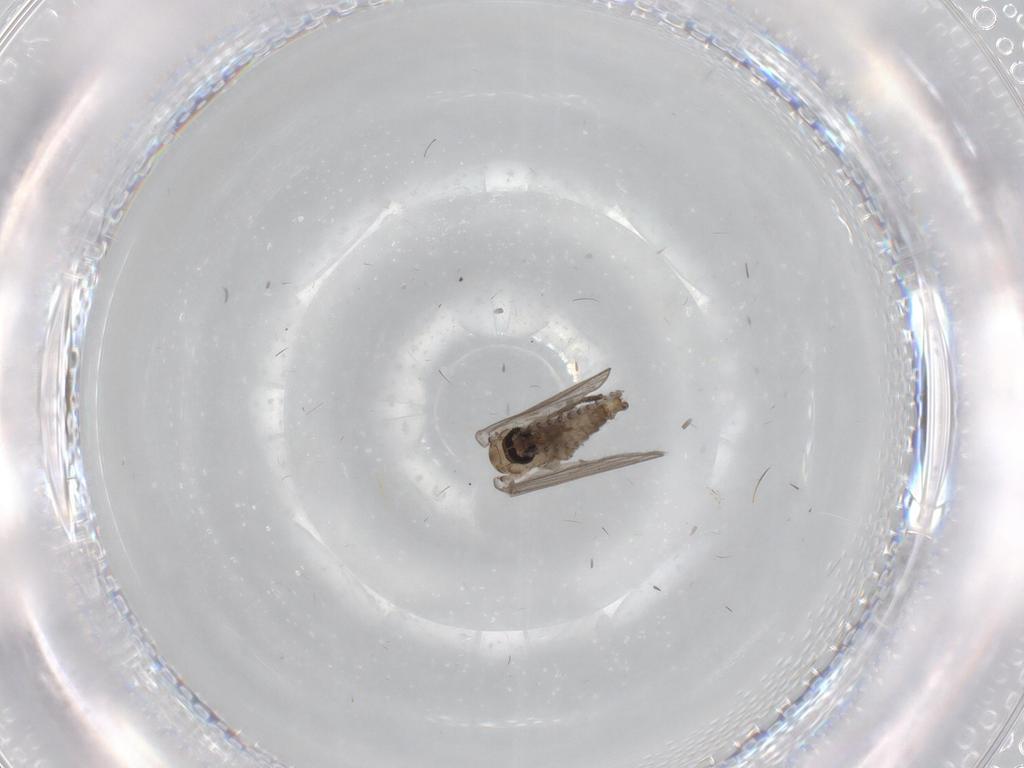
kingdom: Animalia
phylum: Arthropoda
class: Insecta
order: Diptera
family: Psychodidae
